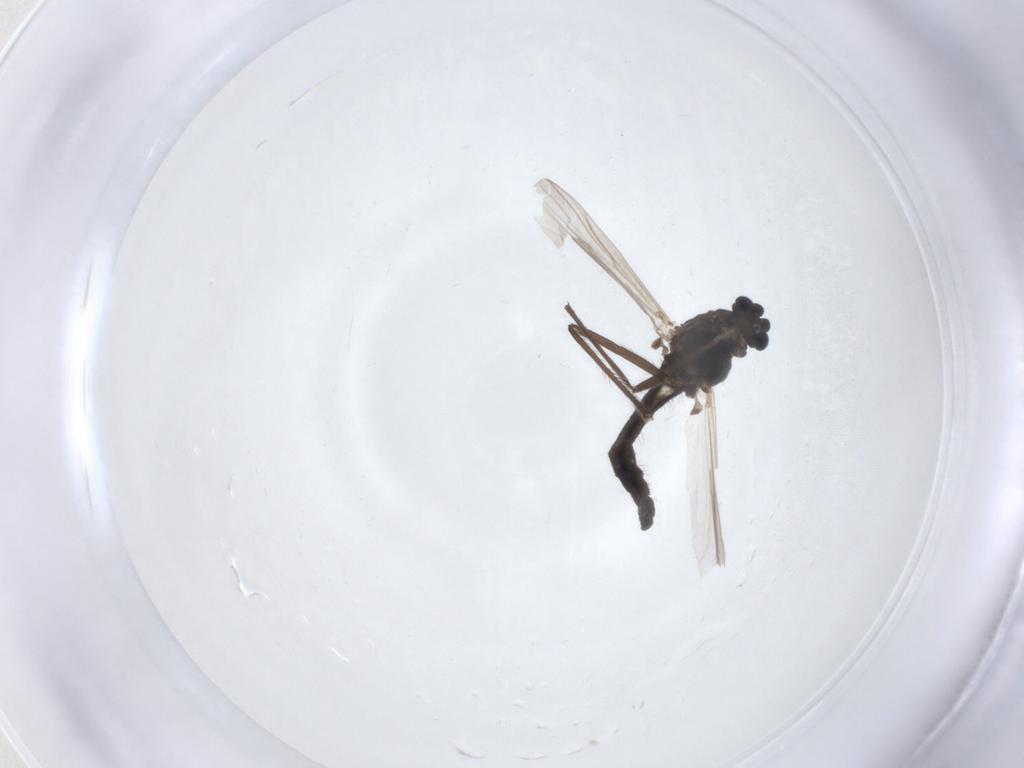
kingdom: Animalia
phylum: Arthropoda
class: Insecta
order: Diptera
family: Chironomidae
